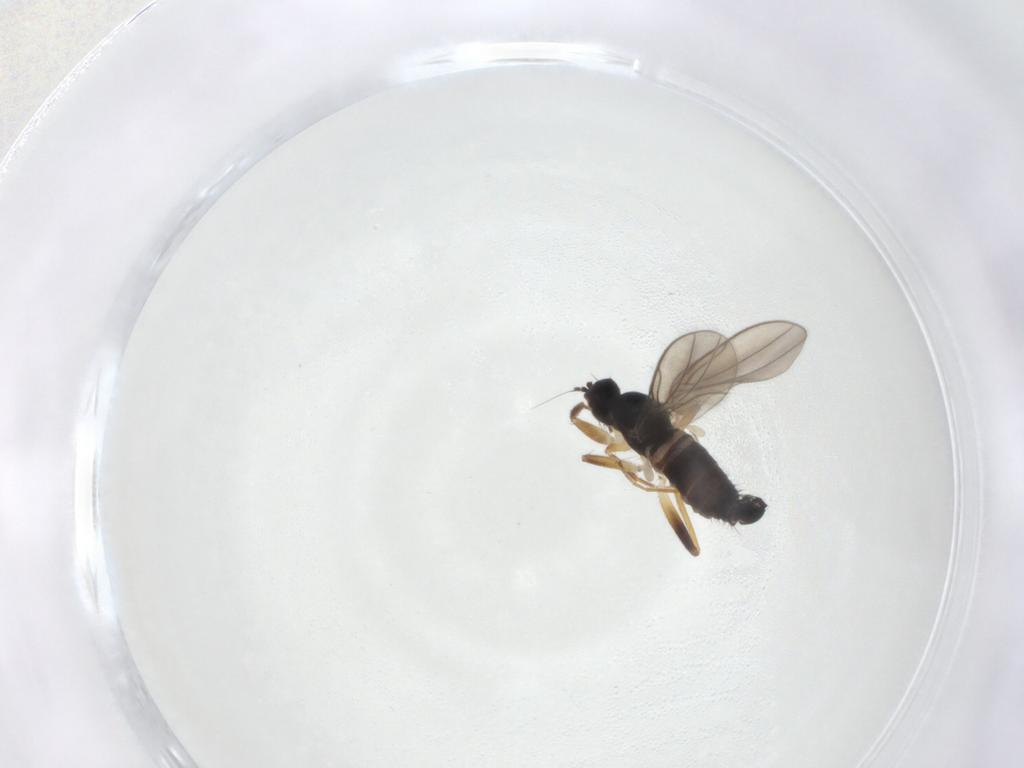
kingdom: Animalia
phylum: Arthropoda
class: Insecta
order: Diptera
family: Hybotidae
